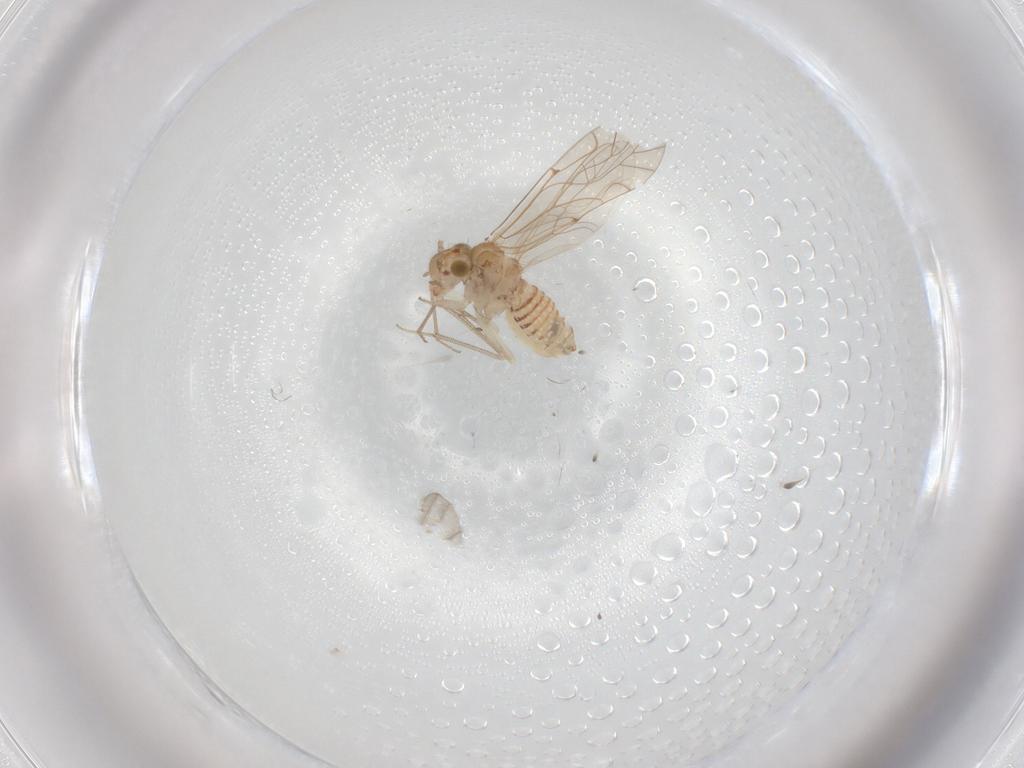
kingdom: Animalia
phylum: Arthropoda
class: Insecta
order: Psocodea
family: Lachesillidae
